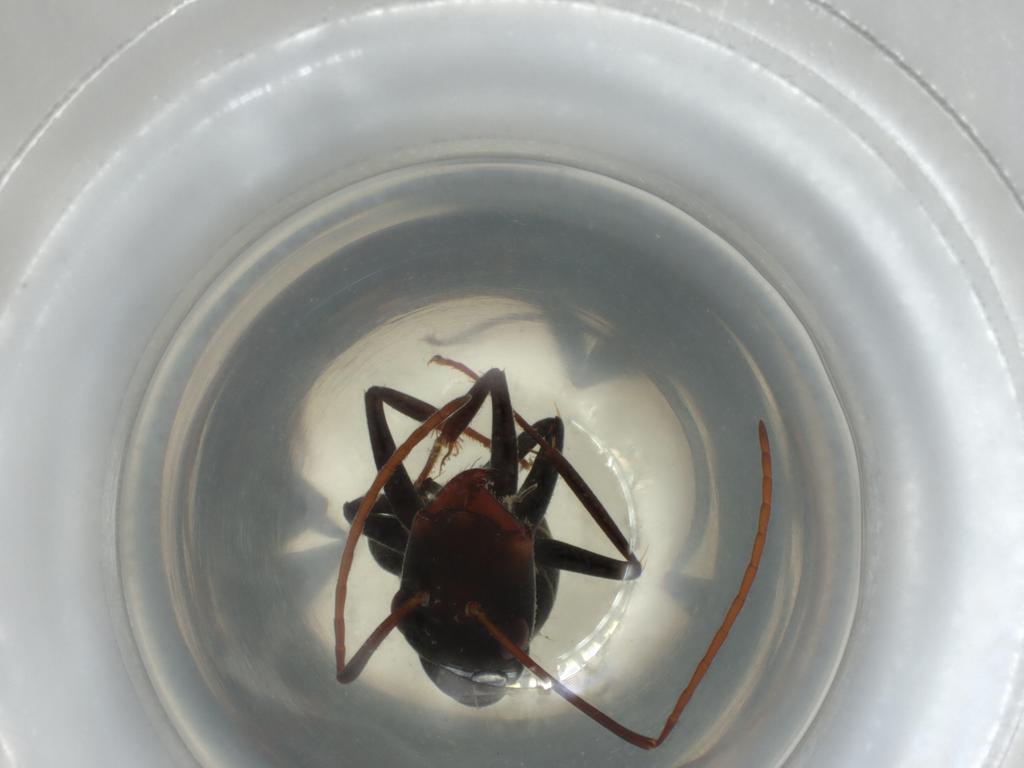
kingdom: Animalia
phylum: Arthropoda
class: Insecta
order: Hymenoptera
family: Formicidae
